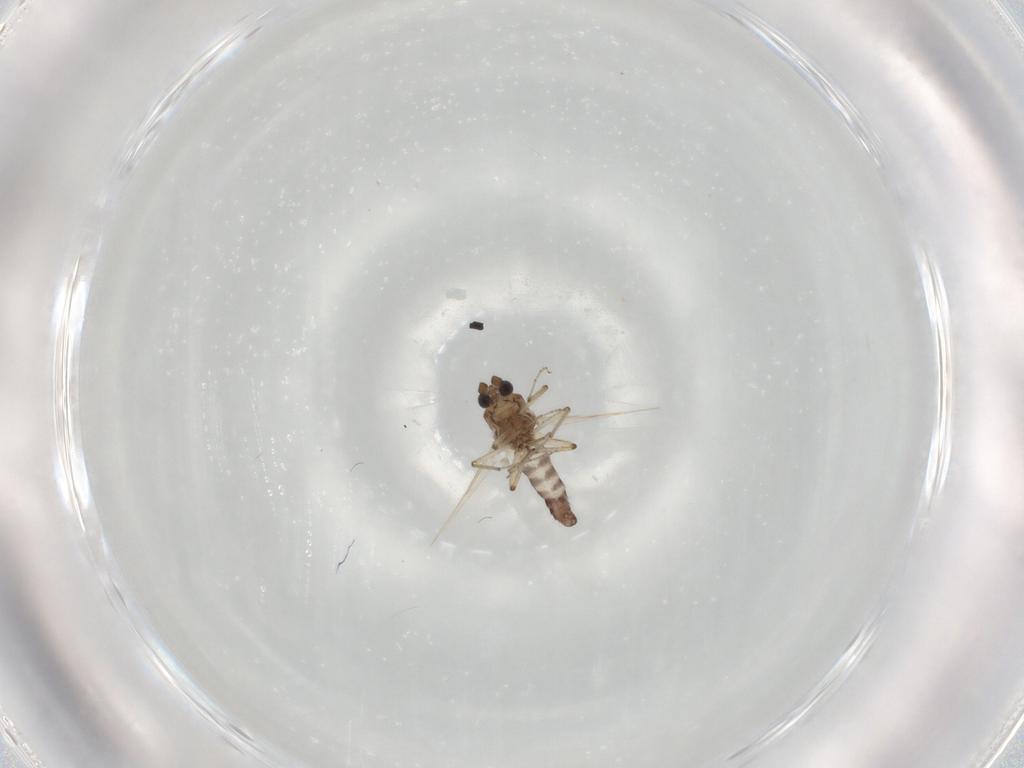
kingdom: Animalia
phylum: Arthropoda
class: Insecta
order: Diptera
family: Ceratopogonidae
